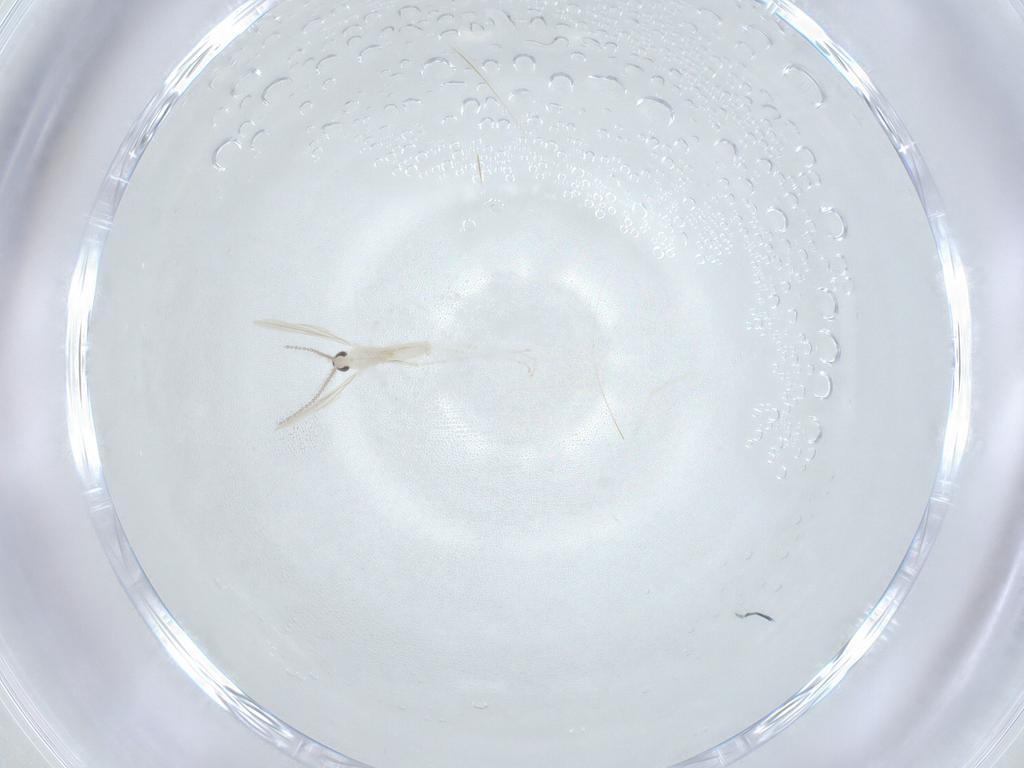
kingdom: Animalia
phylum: Arthropoda
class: Insecta
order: Diptera
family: Cecidomyiidae
